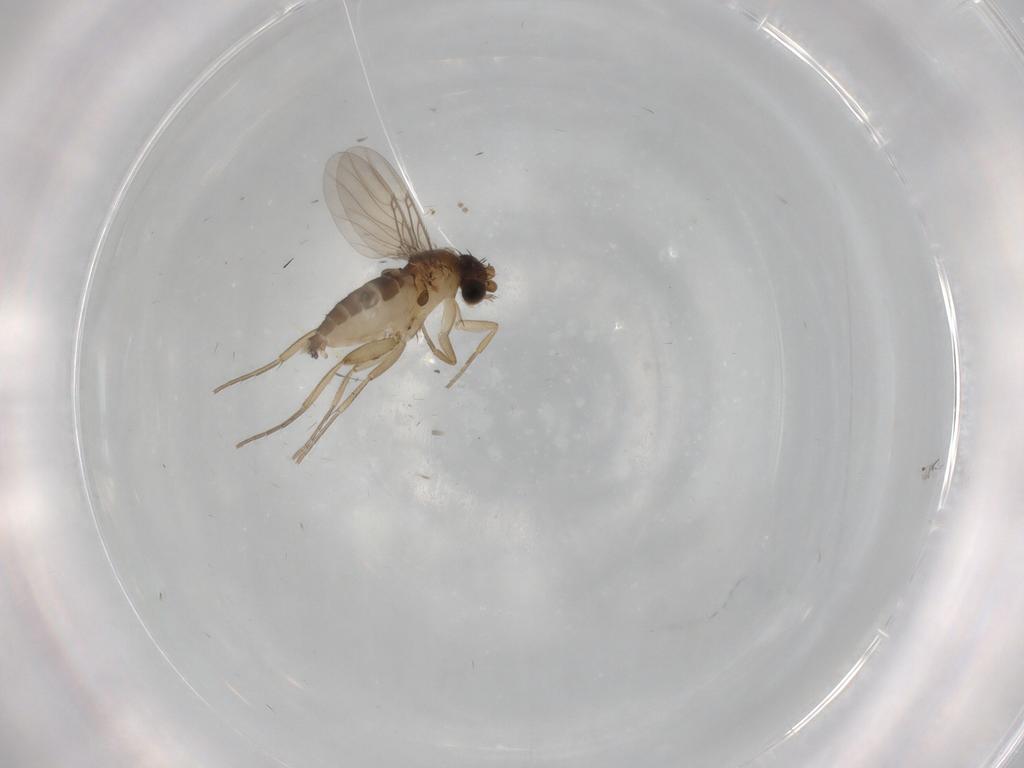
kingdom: Animalia
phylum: Arthropoda
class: Insecta
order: Diptera
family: Phoridae
